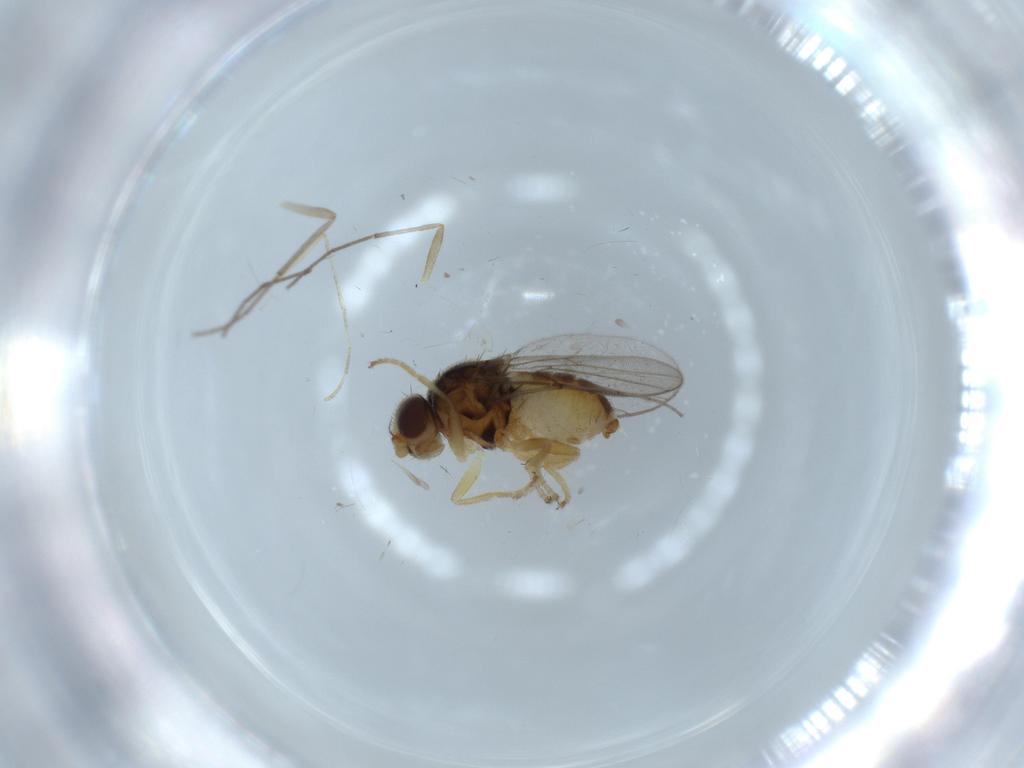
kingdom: Animalia
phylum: Arthropoda
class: Insecta
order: Diptera
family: Chloropidae
